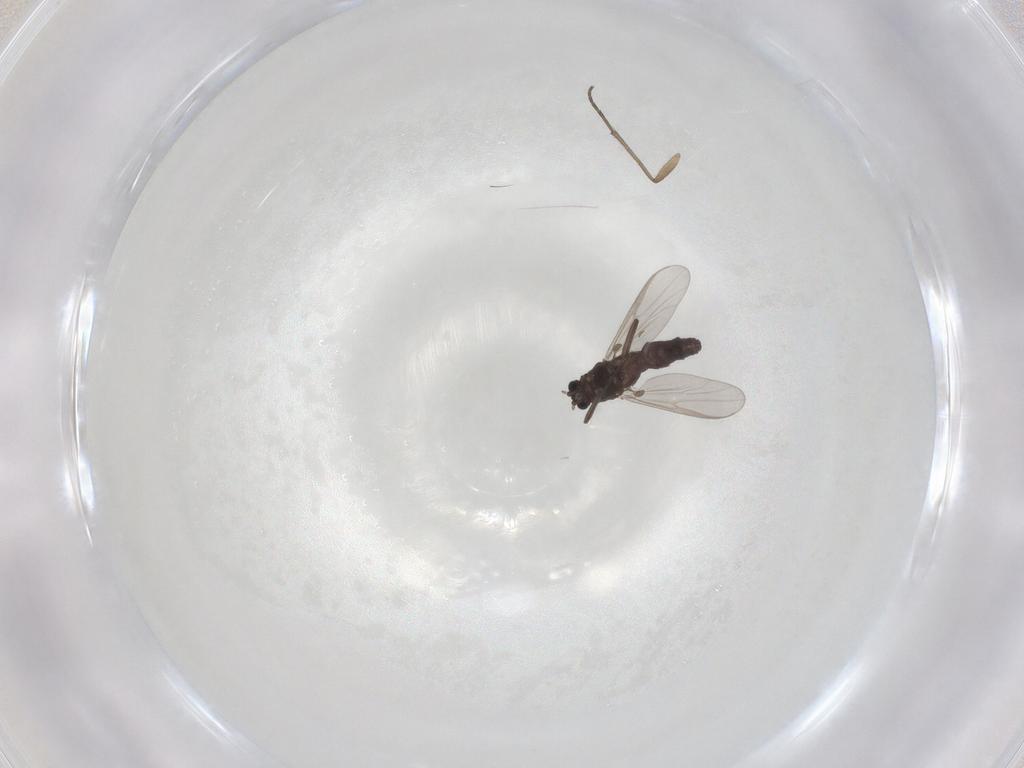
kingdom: Animalia
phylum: Arthropoda
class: Insecta
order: Diptera
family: Chironomidae
